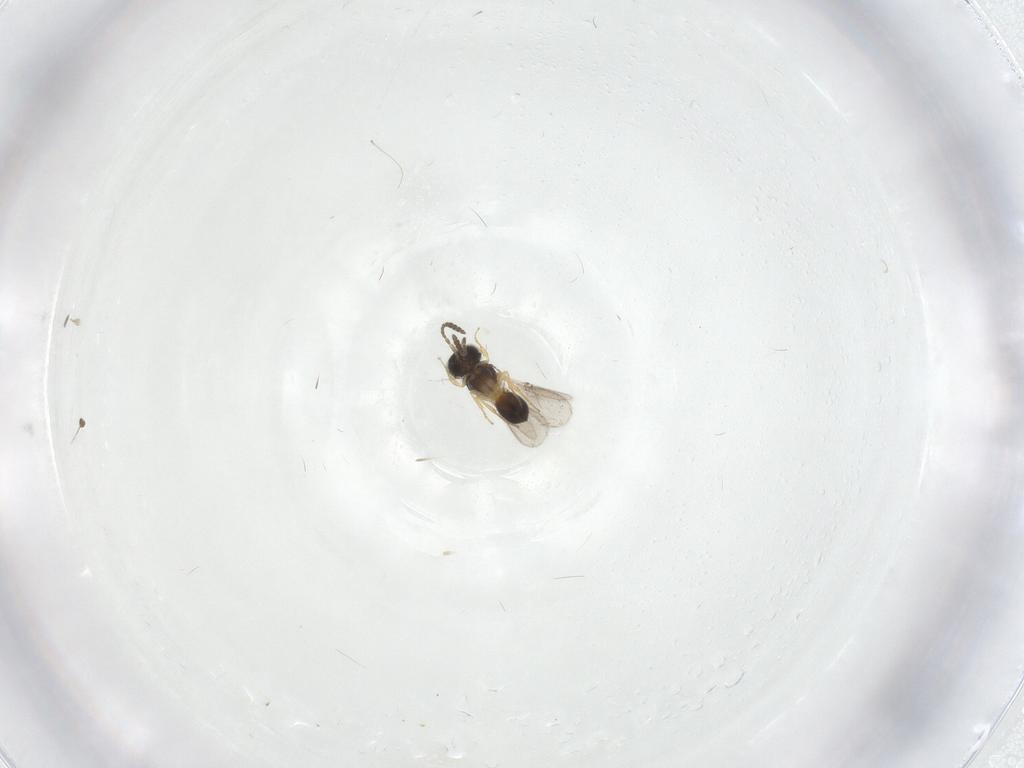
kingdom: Animalia
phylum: Arthropoda
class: Insecta
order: Hymenoptera
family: Scelionidae
